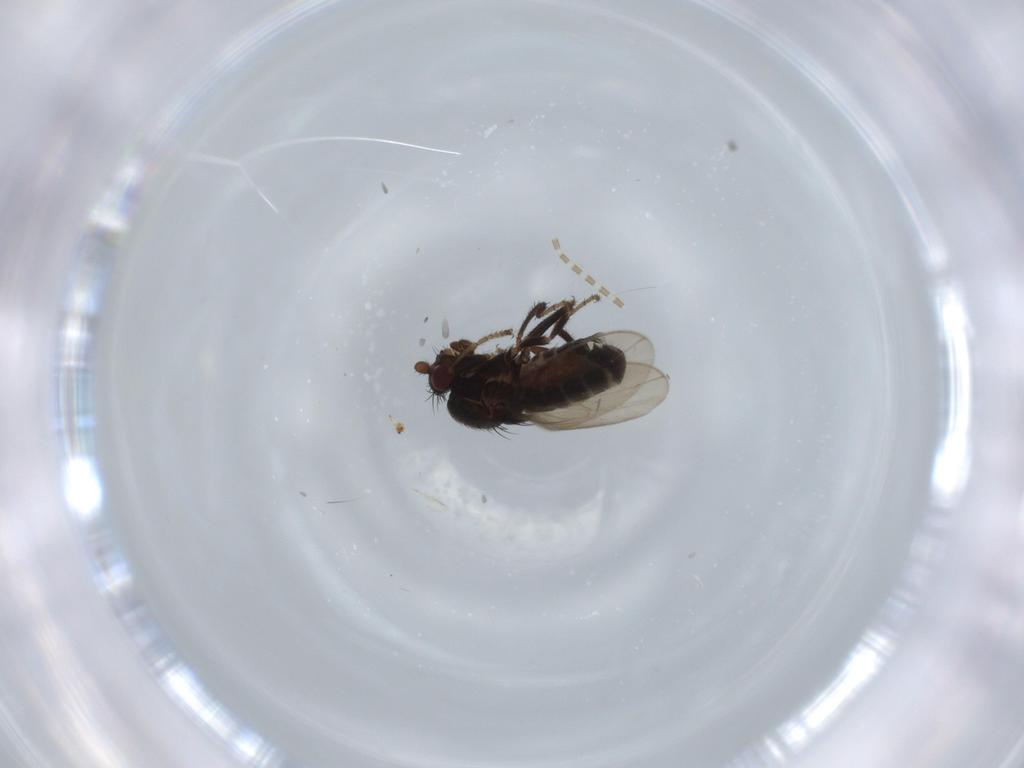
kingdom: Animalia
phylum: Arthropoda
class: Insecta
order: Diptera
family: Sphaeroceridae
